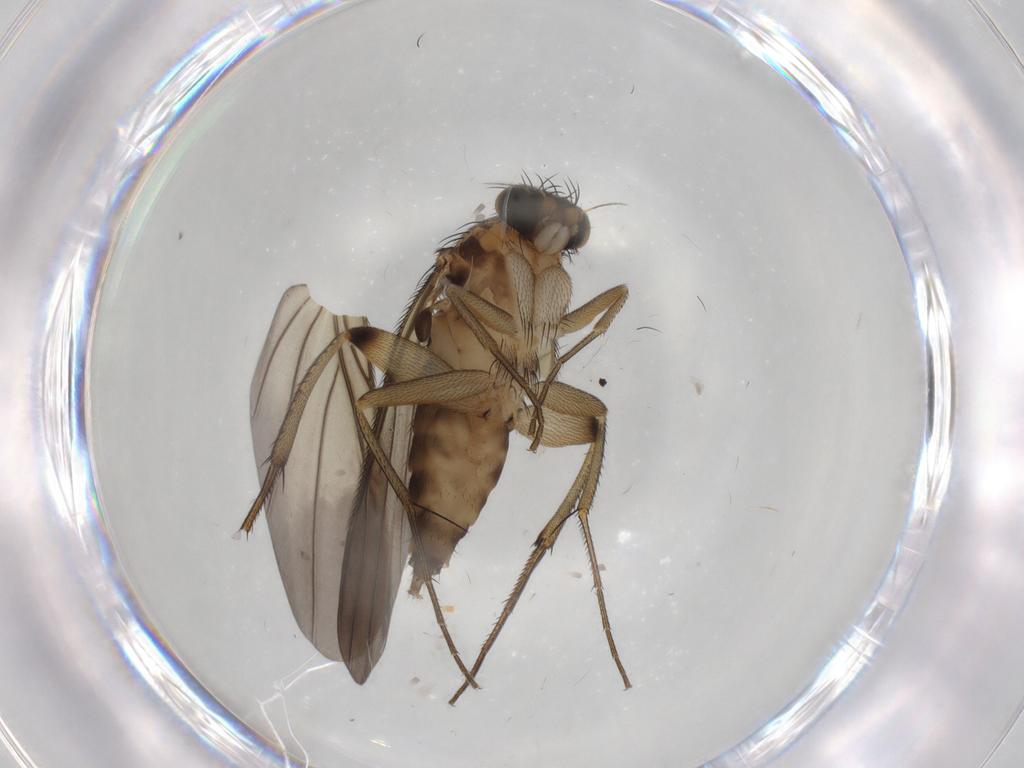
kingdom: Animalia
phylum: Arthropoda
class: Insecta
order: Diptera
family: Phoridae
